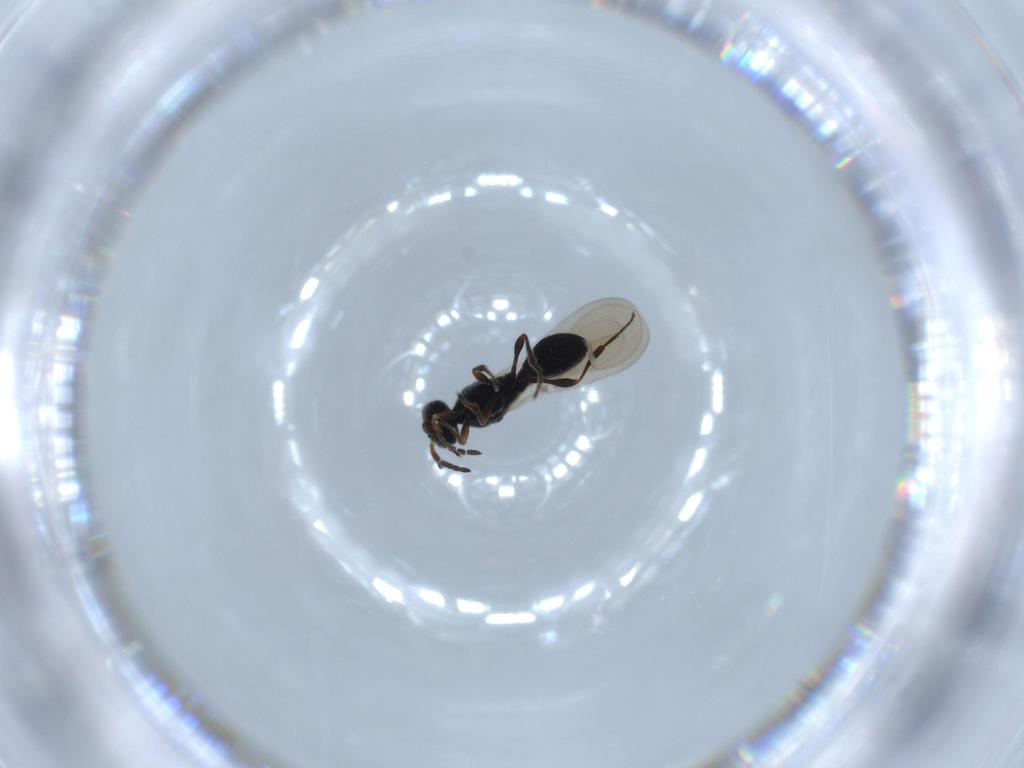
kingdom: Animalia
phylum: Arthropoda
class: Insecta
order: Hymenoptera
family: Platygastridae
